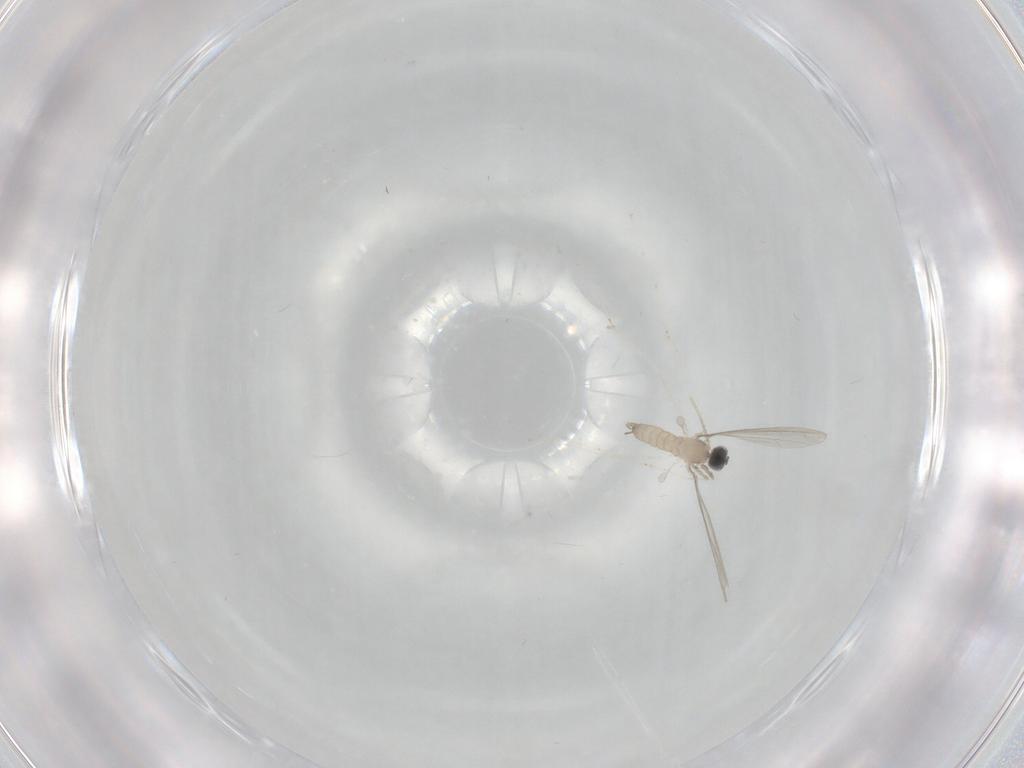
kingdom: Animalia
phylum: Arthropoda
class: Insecta
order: Diptera
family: Cecidomyiidae
